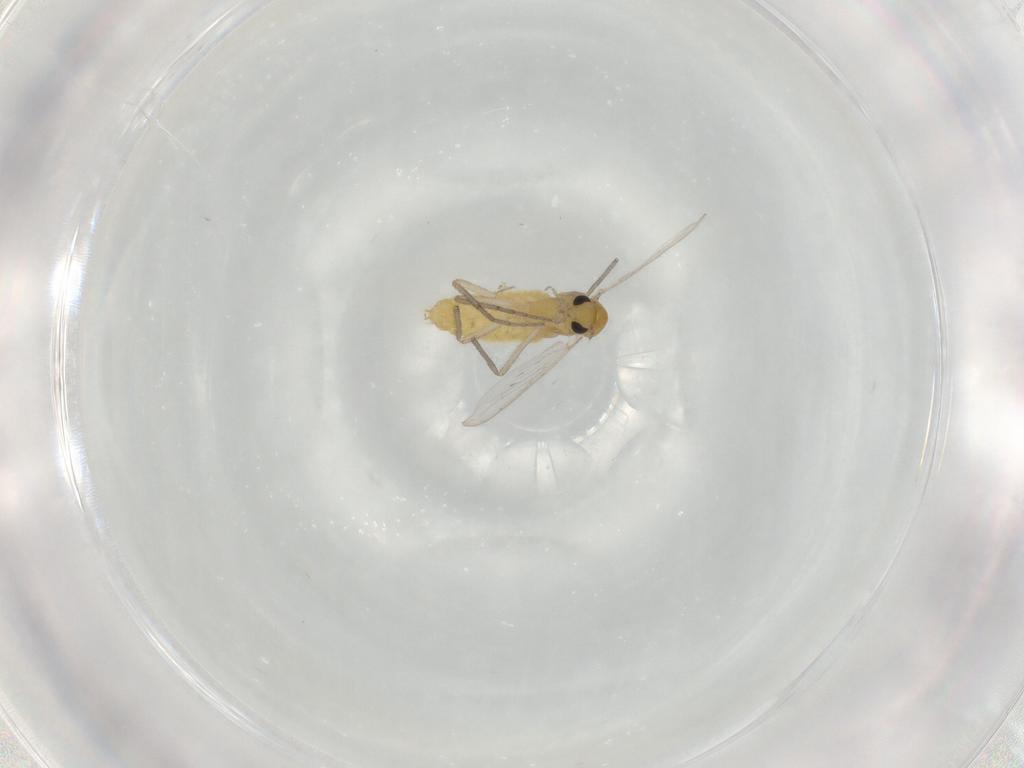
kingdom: Animalia
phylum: Arthropoda
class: Insecta
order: Diptera
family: Chironomidae
